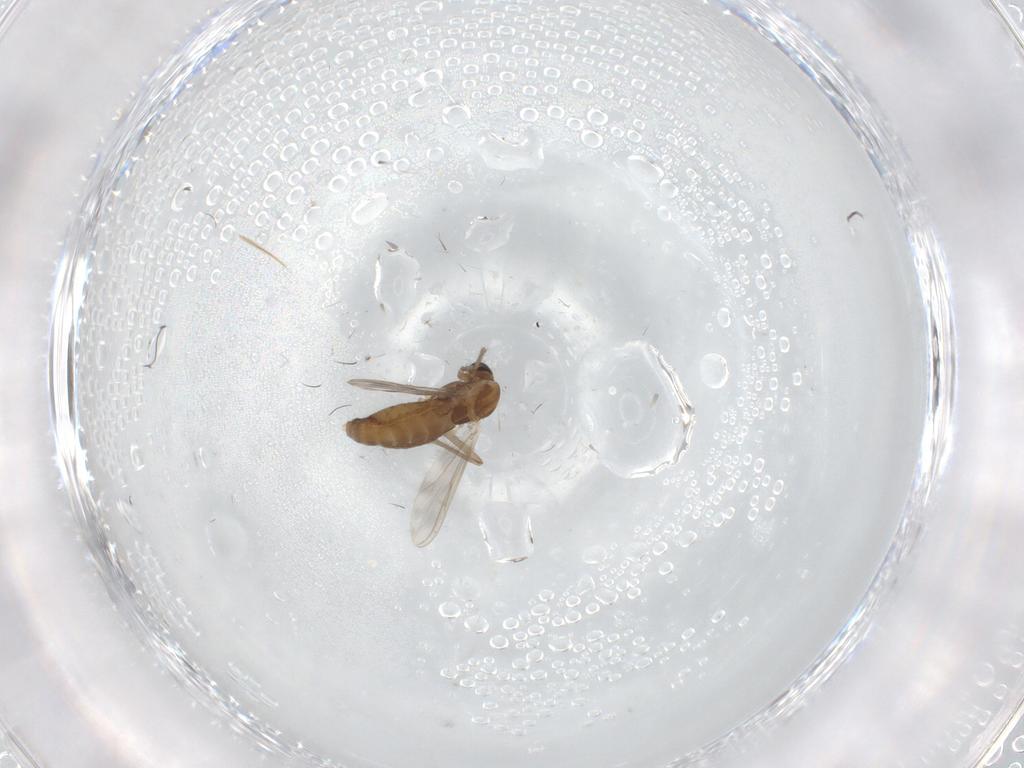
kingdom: Animalia
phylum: Arthropoda
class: Insecta
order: Diptera
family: Chironomidae
